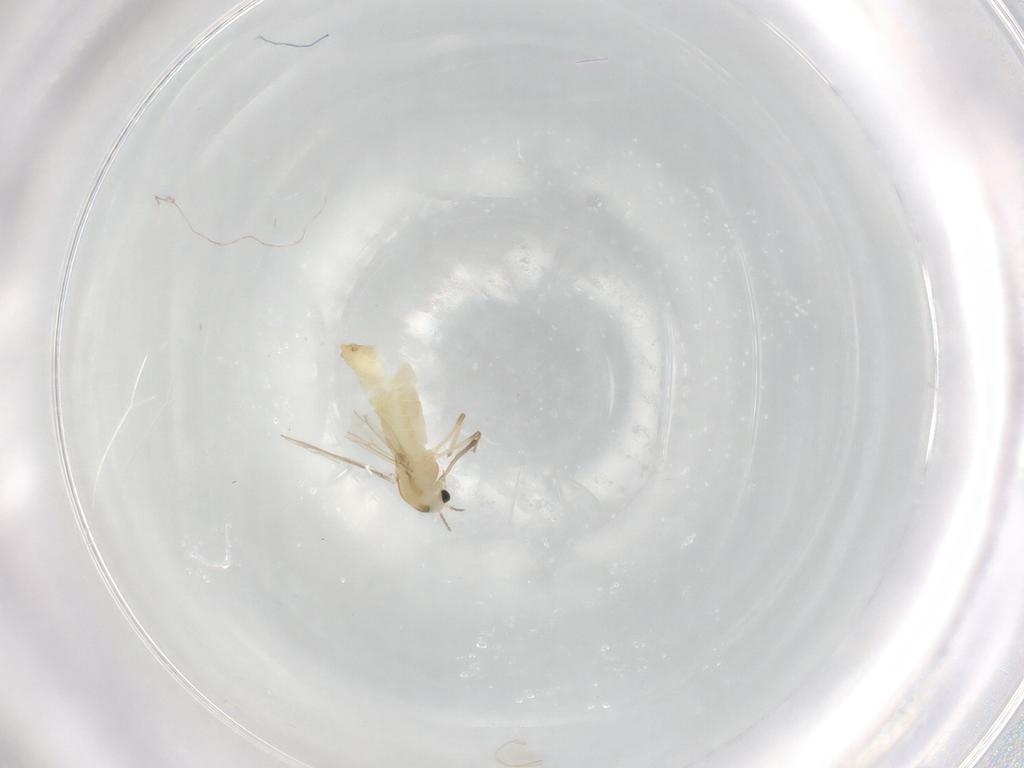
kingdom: Animalia
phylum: Arthropoda
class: Insecta
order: Diptera
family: Chironomidae
